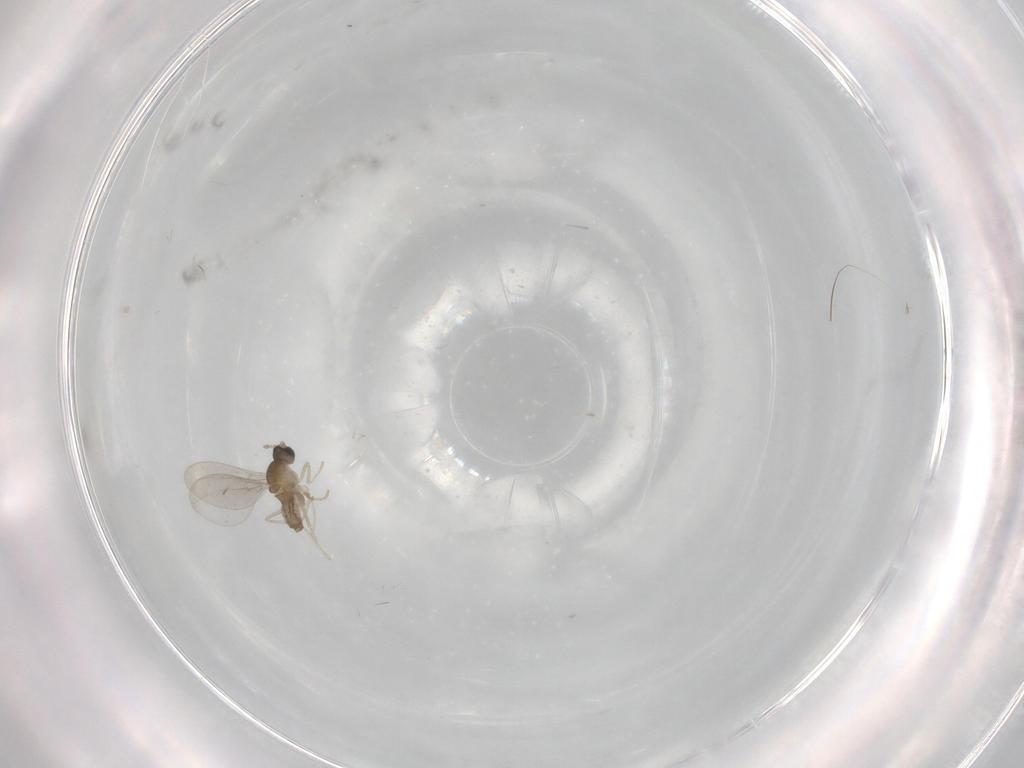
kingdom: Animalia
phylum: Arthropoda
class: Insecta
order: Diptera
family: Cecidomyiidae
